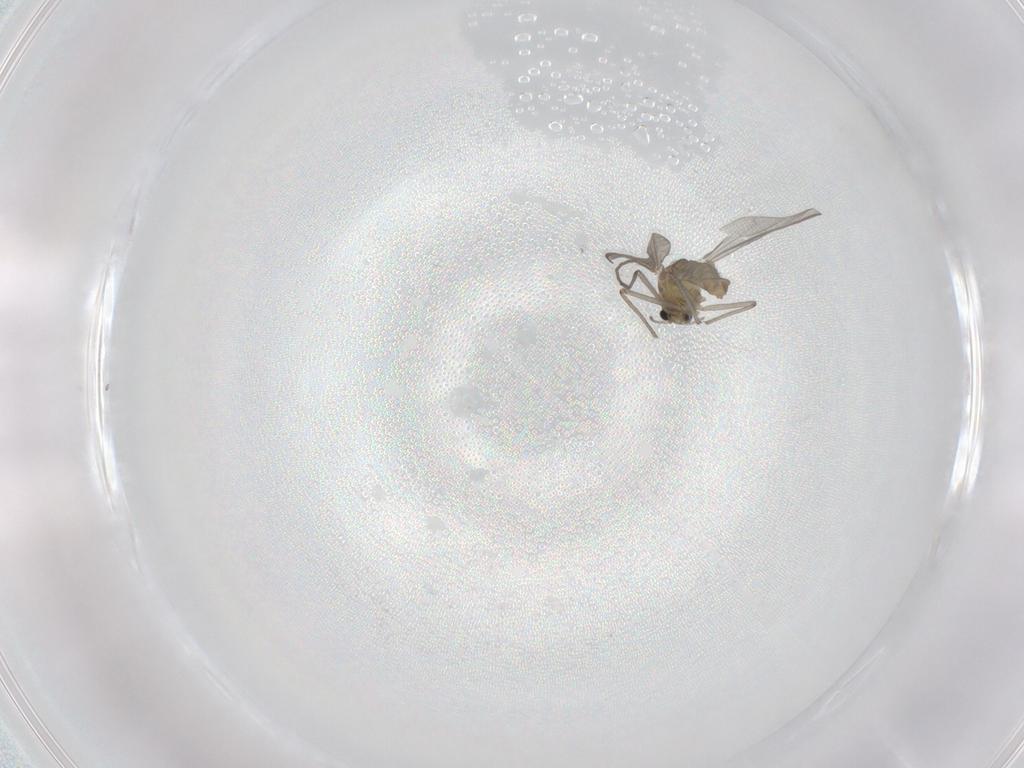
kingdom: Animalia
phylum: Arthropoda
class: Insecta
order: Diptera
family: Chironomidae
